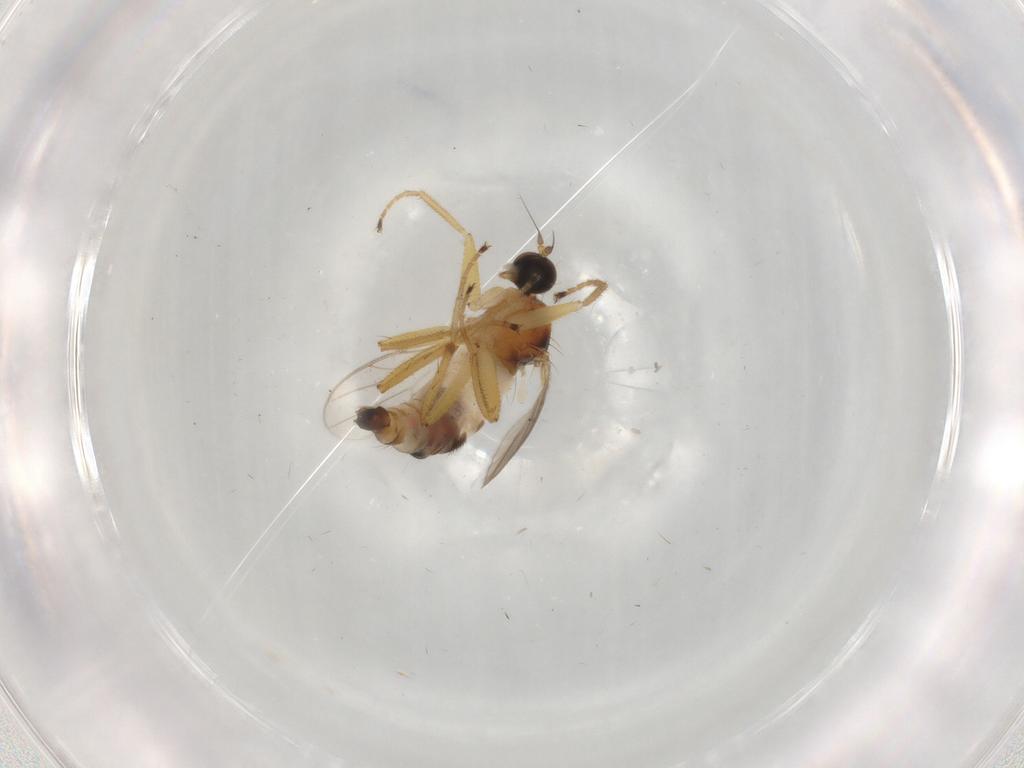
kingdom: Animalia
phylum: Arthropoda
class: Insecta
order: Diptera
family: Hybotidae
